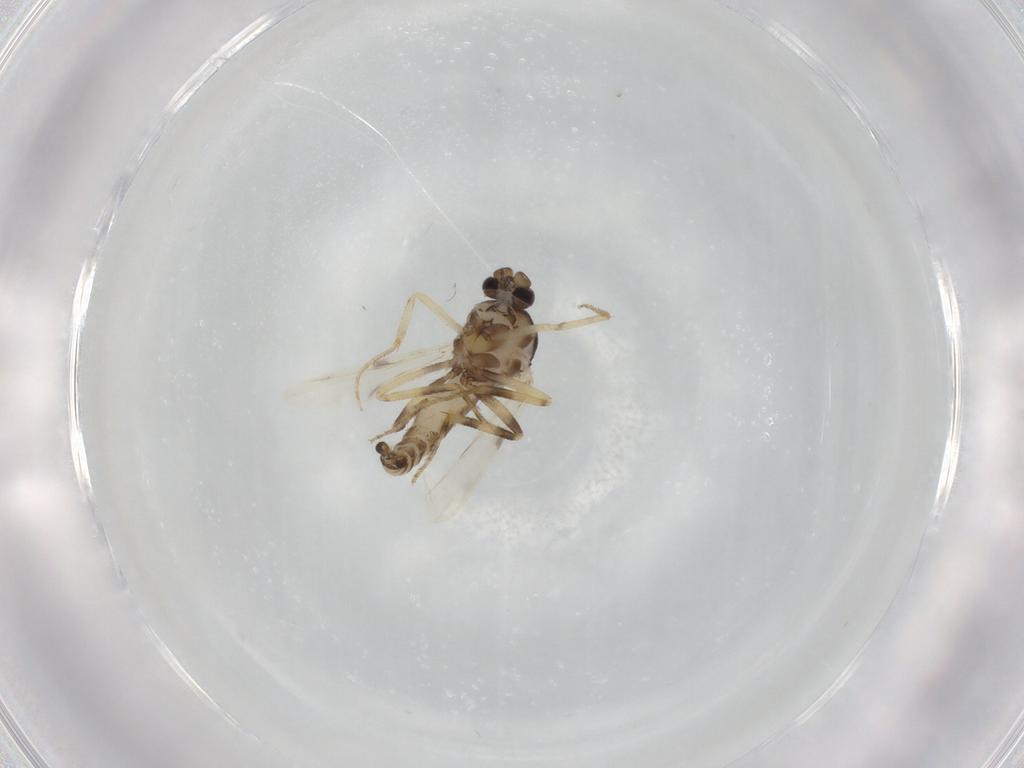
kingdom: Animalia
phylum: Arthropoda
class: Insecta
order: Diptera
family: Ceratopogonidae
